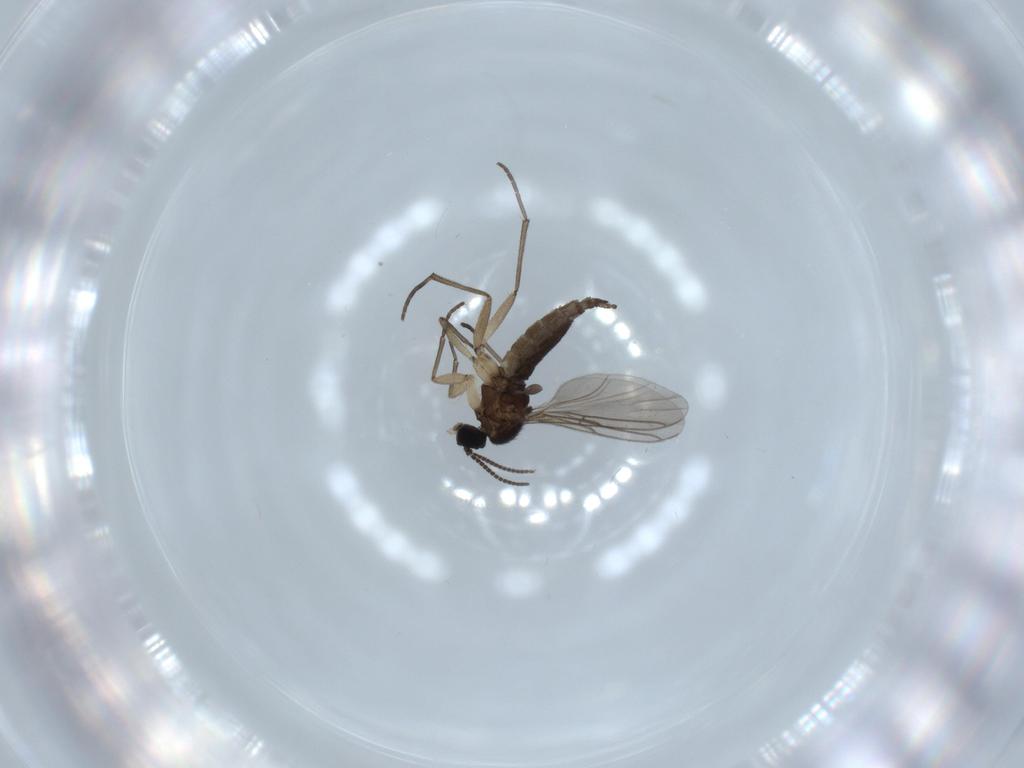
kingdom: Animalia
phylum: Arthropoda
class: Insecta
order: Diptera
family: Sciaridae
